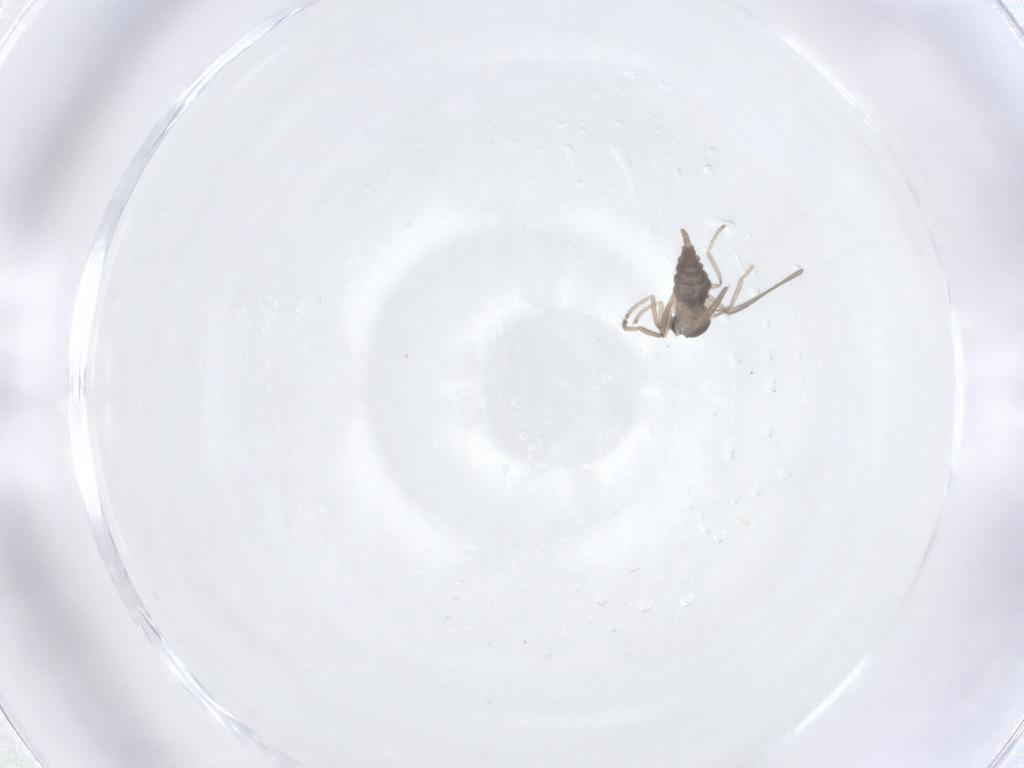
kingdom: Animalia
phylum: Arthropoda
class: Insecta
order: Diptera
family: Cecidomyiidae
